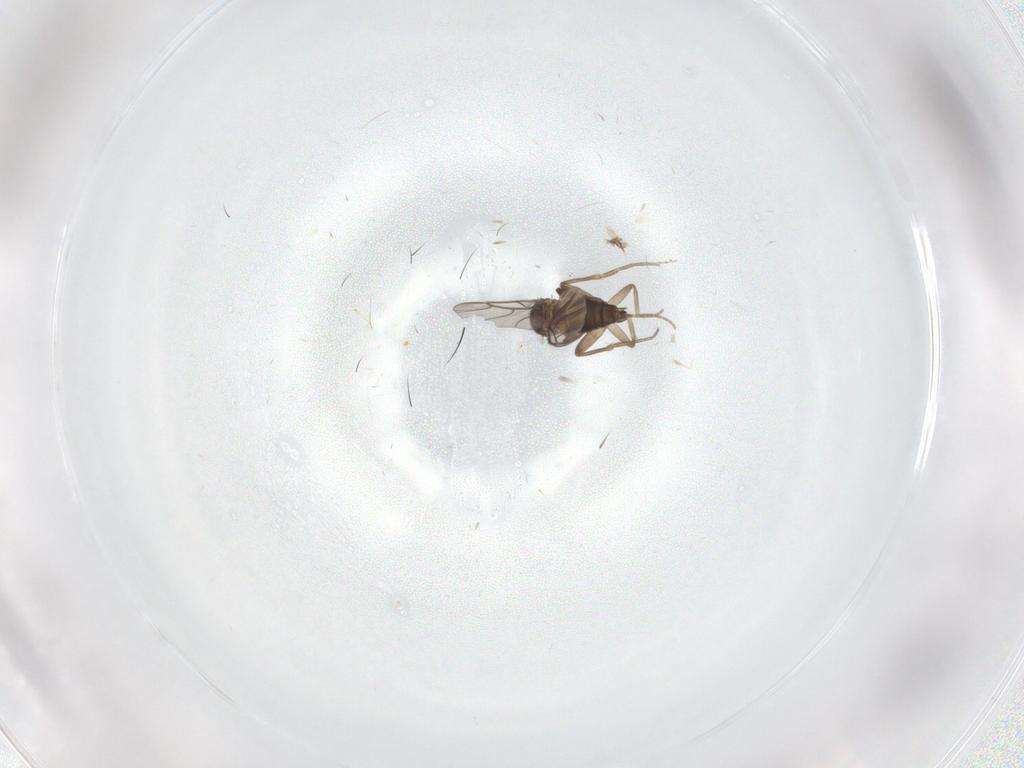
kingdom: Animalia
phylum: Arthropoda
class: Insecta
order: Diptera
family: Phoridae
